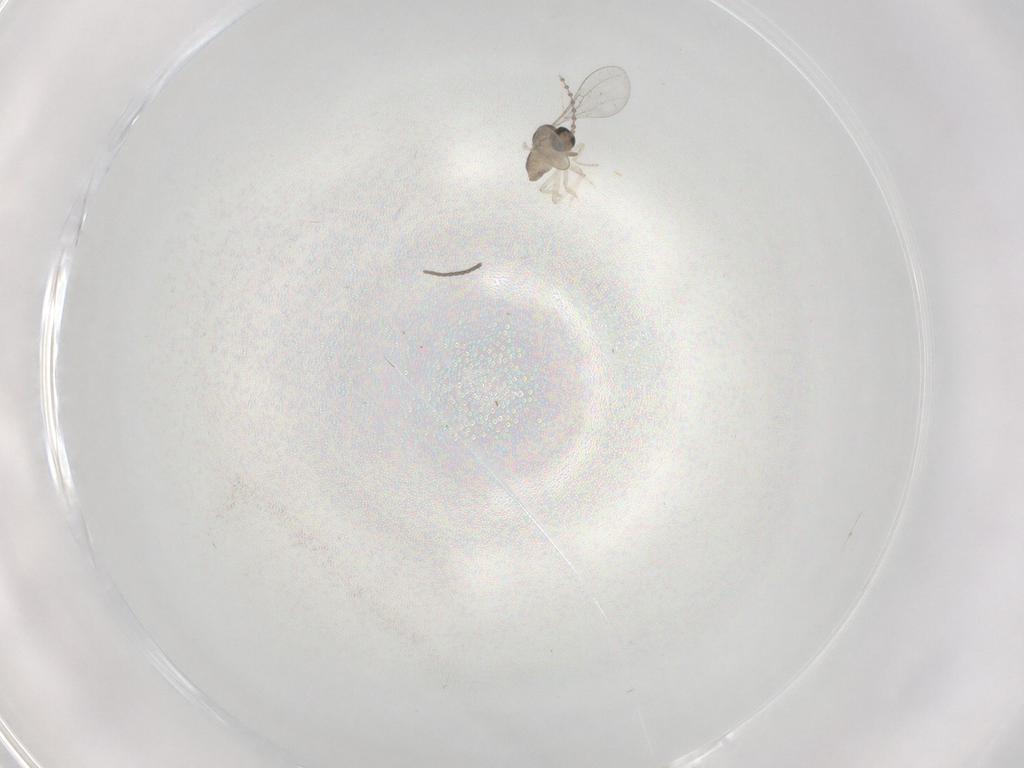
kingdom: Animalia
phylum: Arthropoda
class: Insecta
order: Diptera
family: Cecidomyiidae
